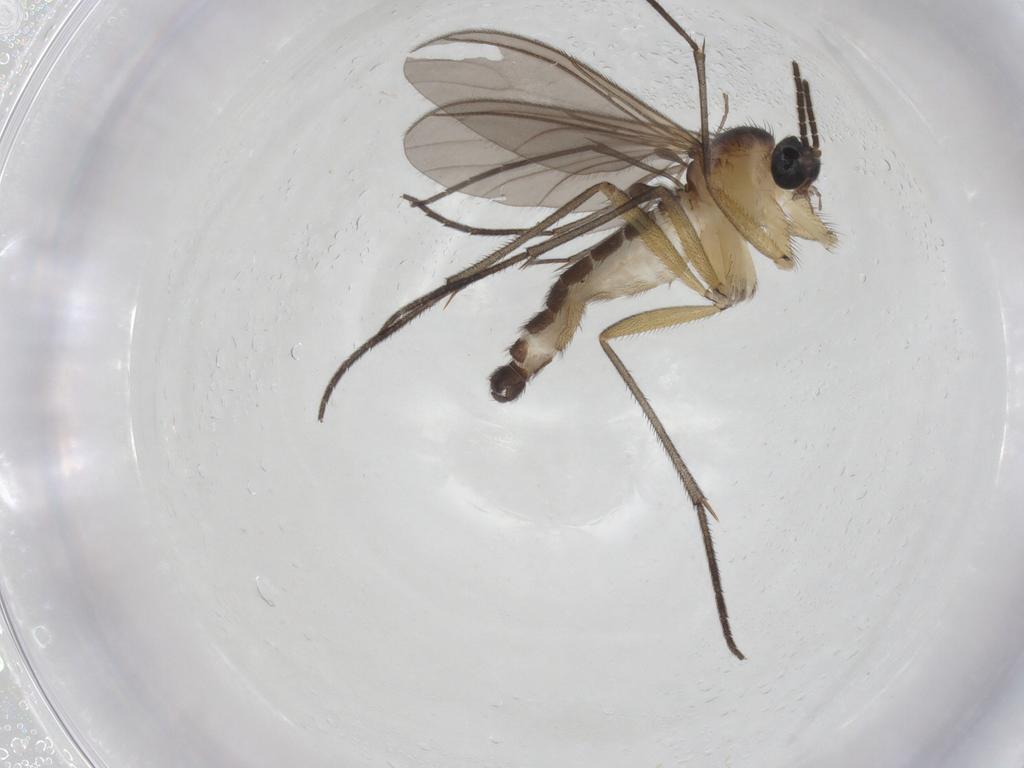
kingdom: Animalia
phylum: Arthropoda
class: Insecta
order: Diptera
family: Sciaridae
